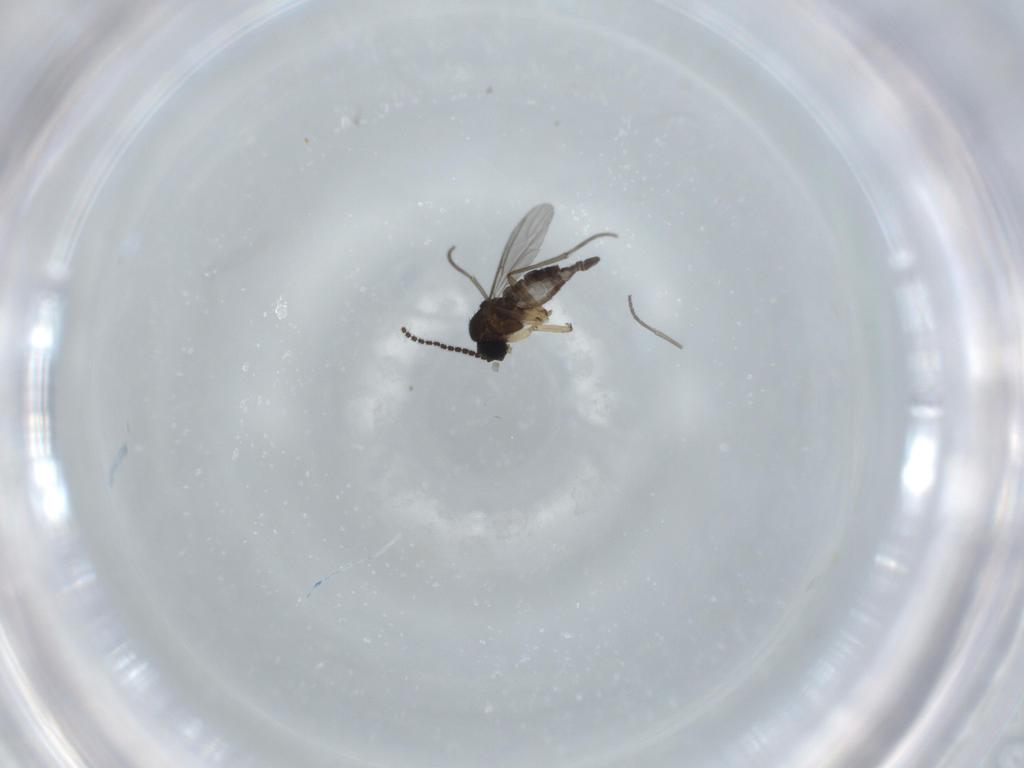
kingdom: Animalia
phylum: Arthropoda
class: Insecta
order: Diptera
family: Sciaridae
